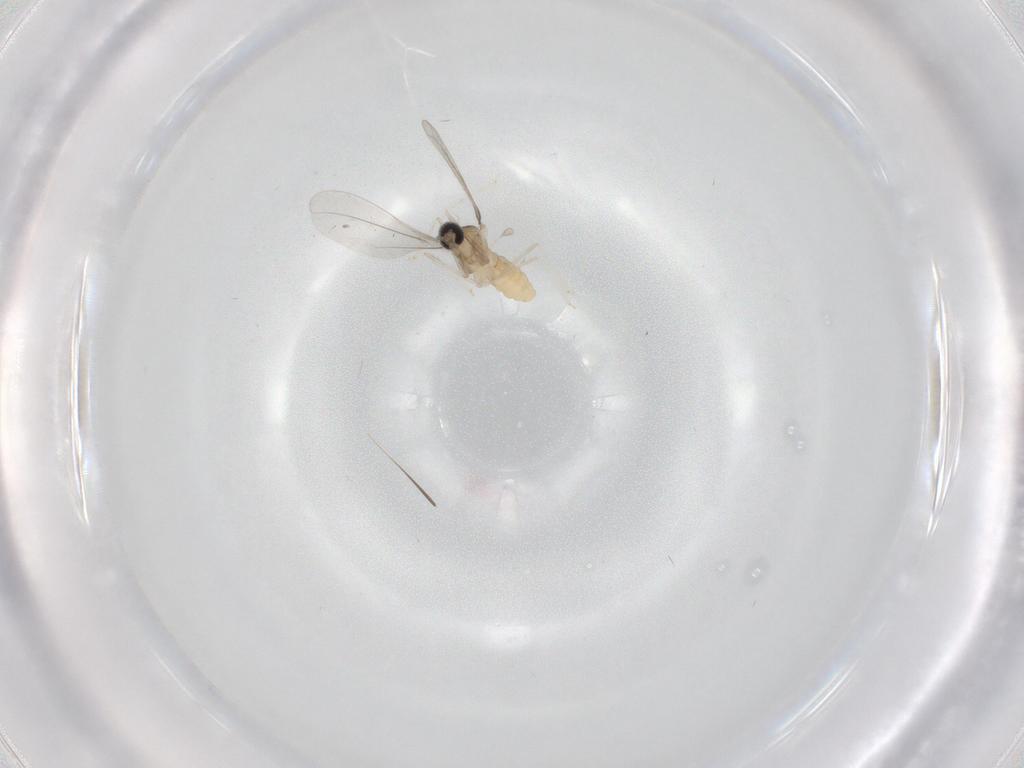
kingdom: Animalia
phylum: Arthropoda
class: Insecta
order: Diptera
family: Cecidomyiidae
